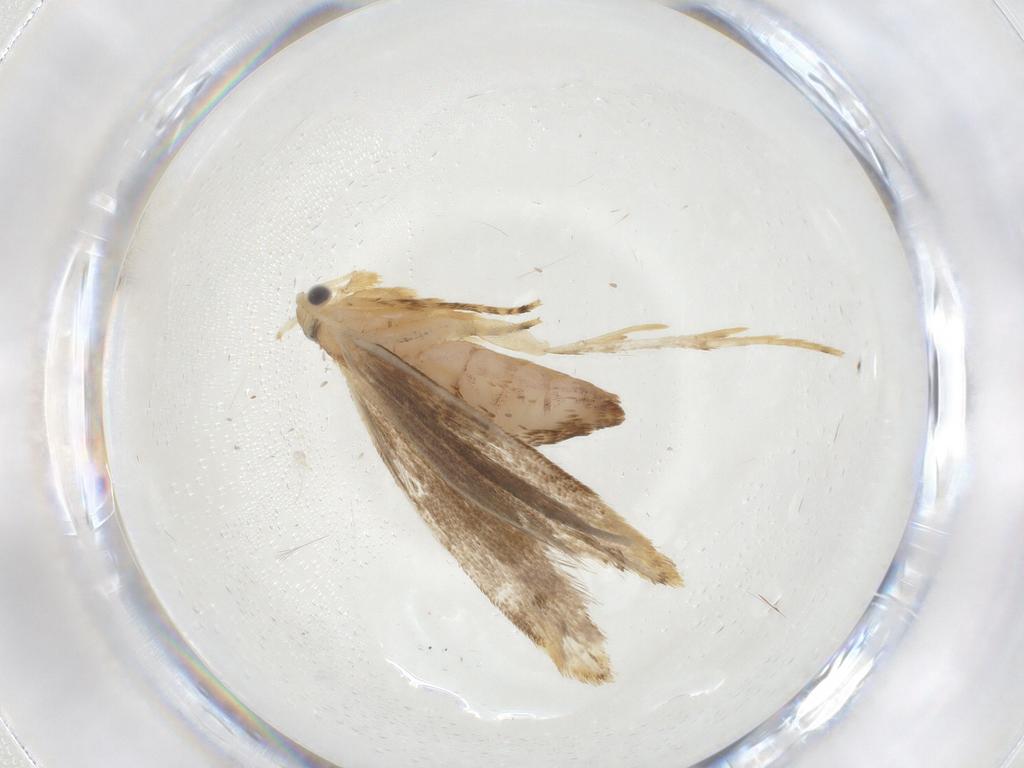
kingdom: Animalia
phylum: Arthropoda
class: Insecta
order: Lepidoptera
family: Dryadaulidae
